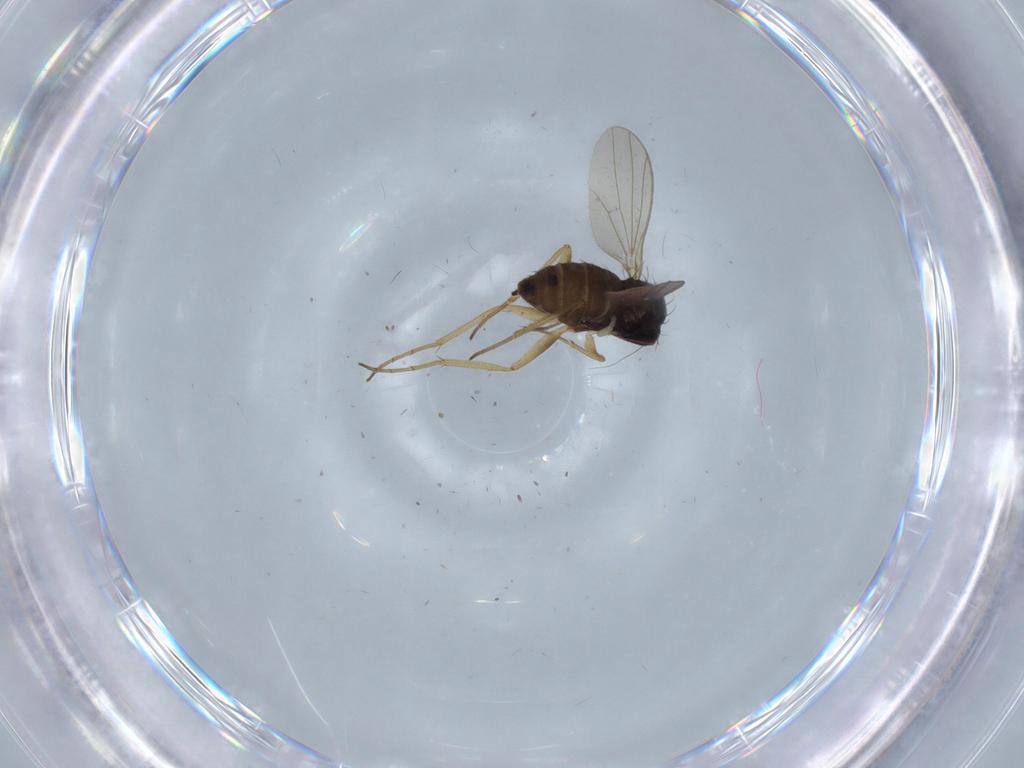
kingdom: Animalia
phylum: Arthropoda
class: Insecta
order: Diptera
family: Dolichopodidae
